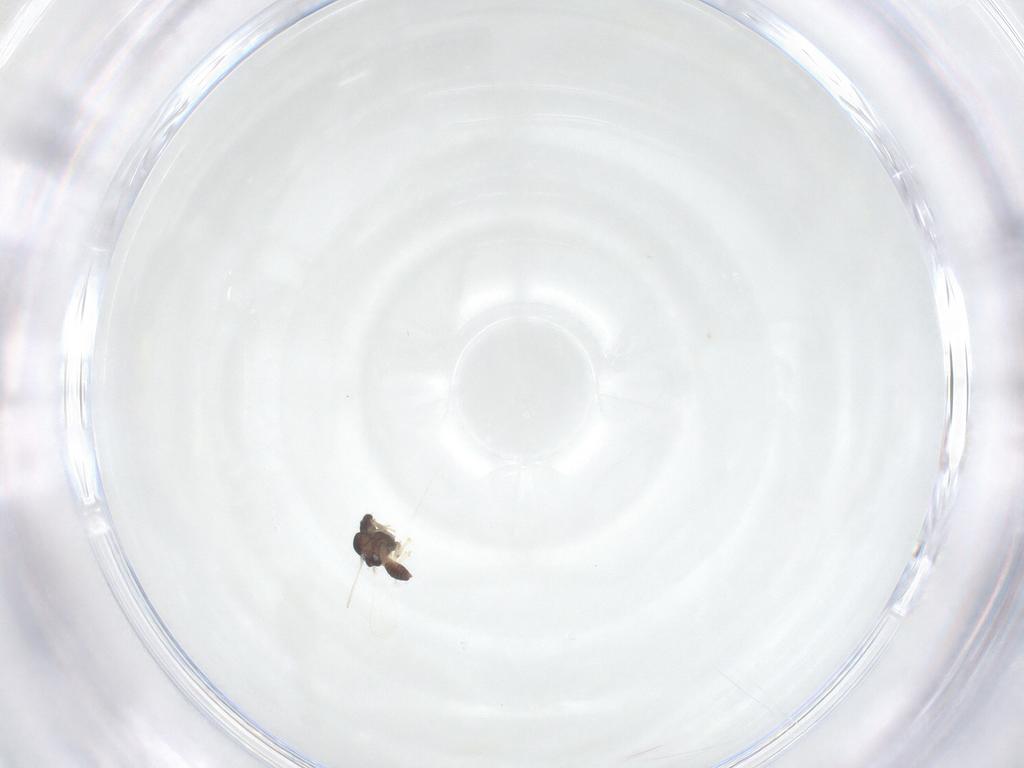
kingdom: Animalia
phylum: Arthropoda
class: Insecta
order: Diptera
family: Chironomidae
